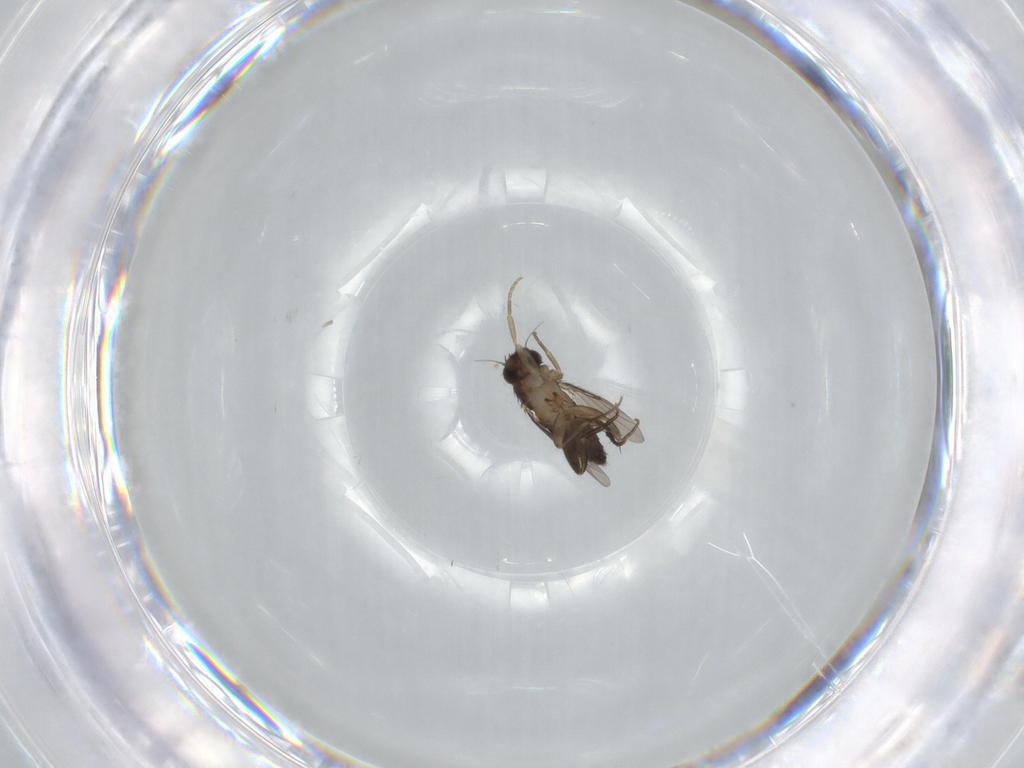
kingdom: Animalia
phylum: Arthropoda
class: Insecta
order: Diptera
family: Phoridae
